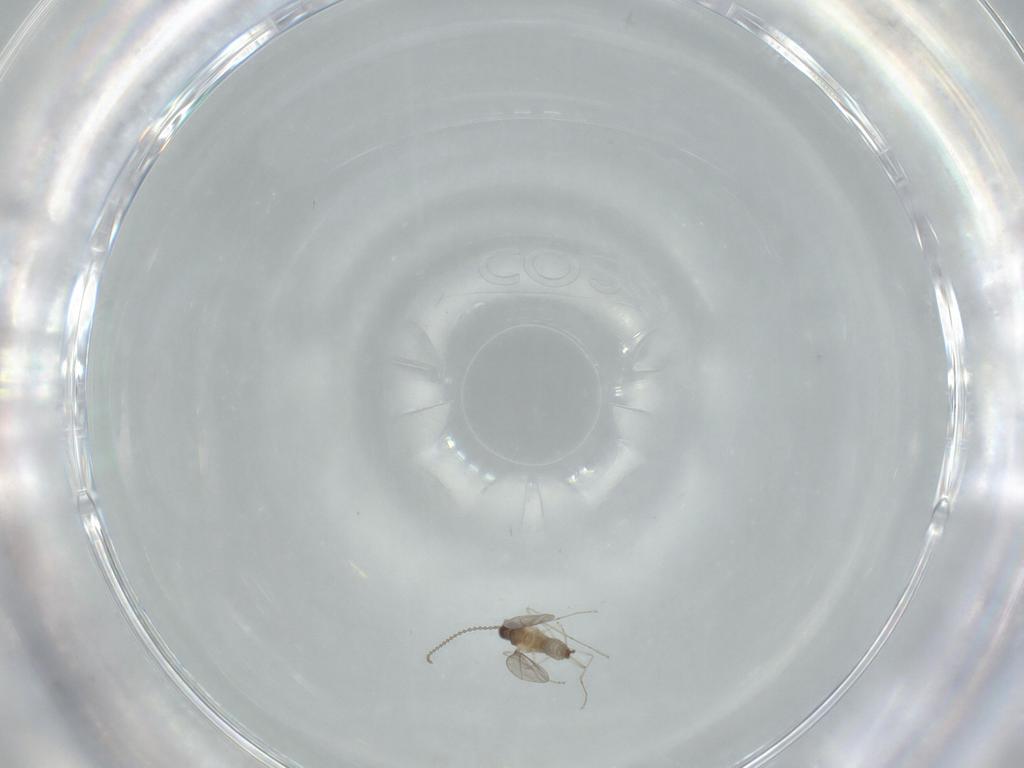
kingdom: Animalia
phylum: Arthropoda
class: Insecta
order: Diptera
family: Cecidomyiidae
